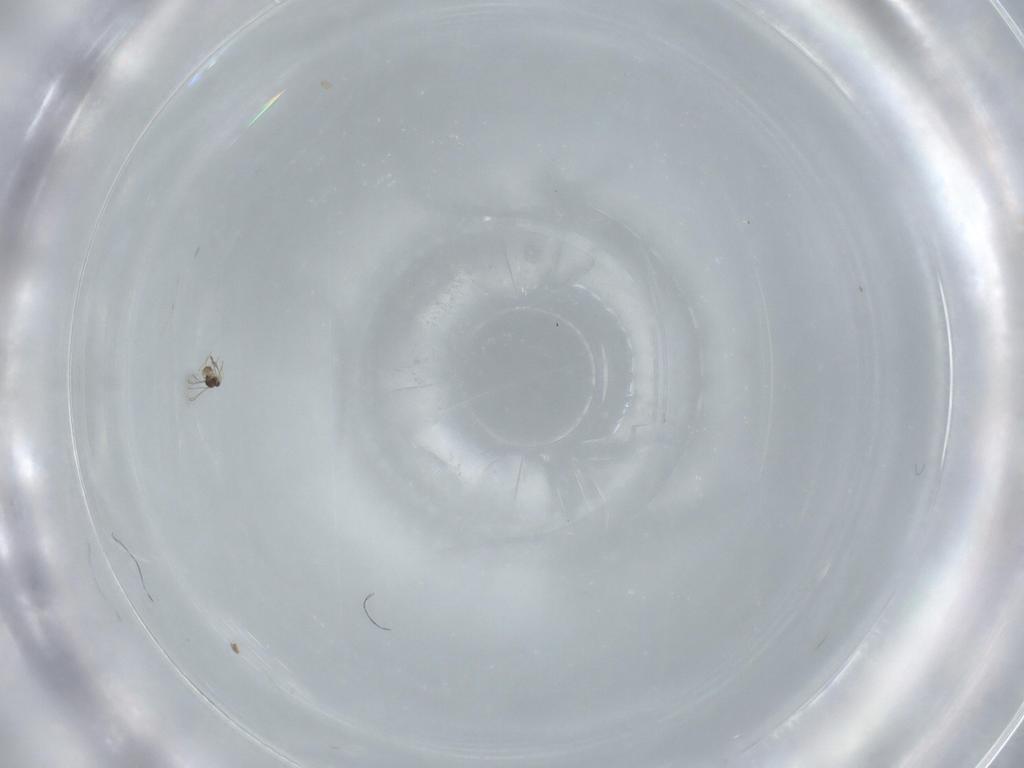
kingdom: Animalia
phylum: Arthropoda
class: Insecta
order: Hymenoptera
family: Mymaridae
